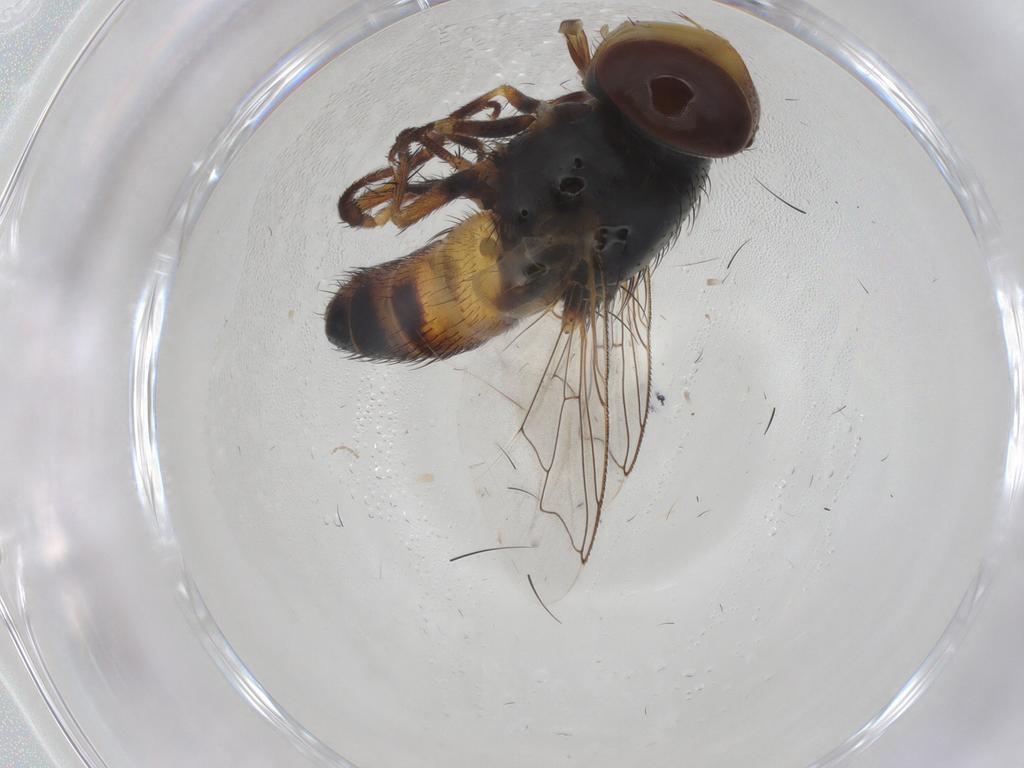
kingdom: Animalia
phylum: Arthropoda
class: Insecta
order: Diptera
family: Sarcophagidae
